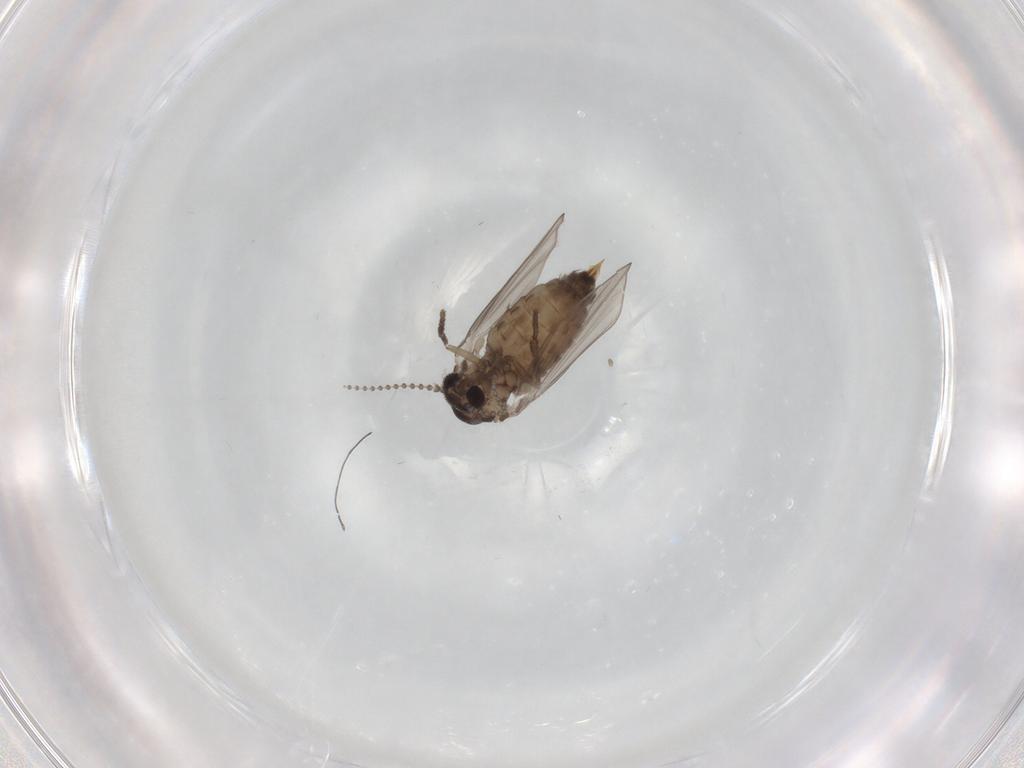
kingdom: Animalia
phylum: Arthropoda
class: Insecta
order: Diptera
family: Psychodidae
